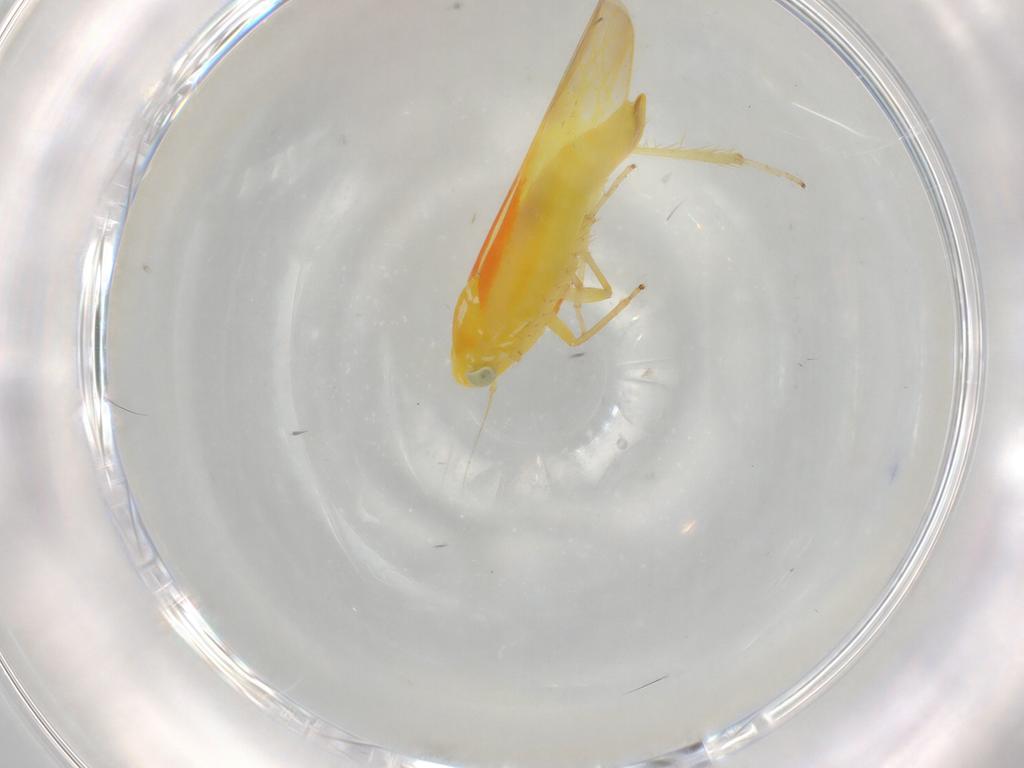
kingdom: Animalia
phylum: Arthropoda
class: Insecta
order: Hemiptera
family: Cicadellidae
